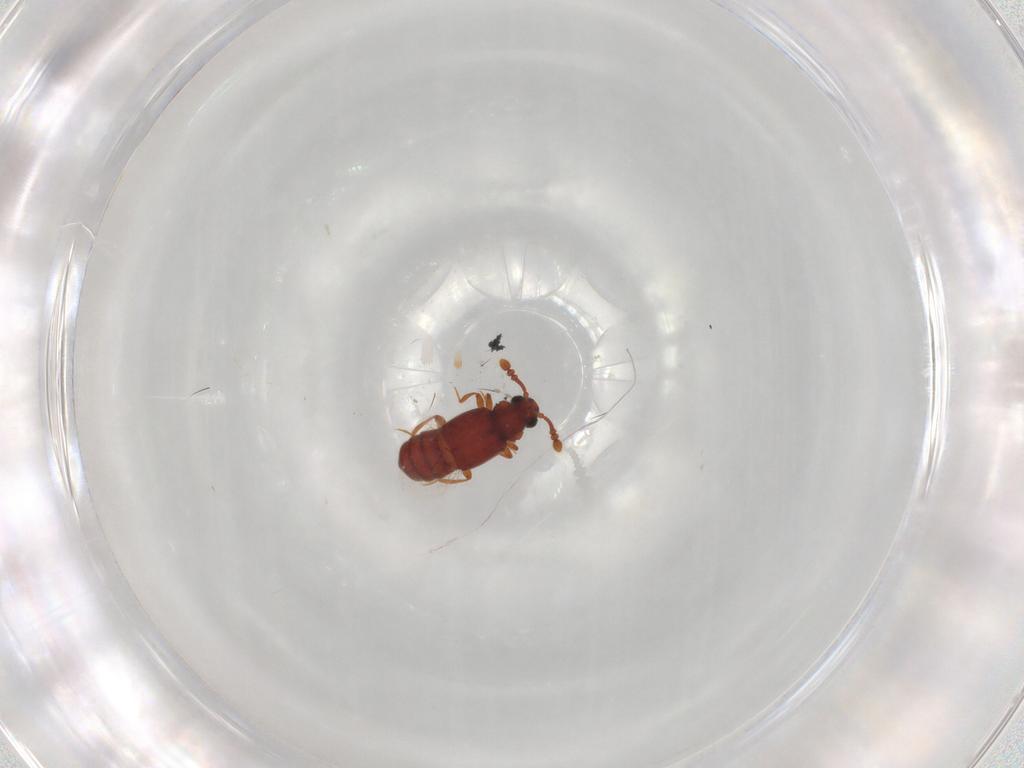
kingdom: Animalia
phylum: Arthropoda
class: Insecta
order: Coleoptera
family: Staphylinidae
